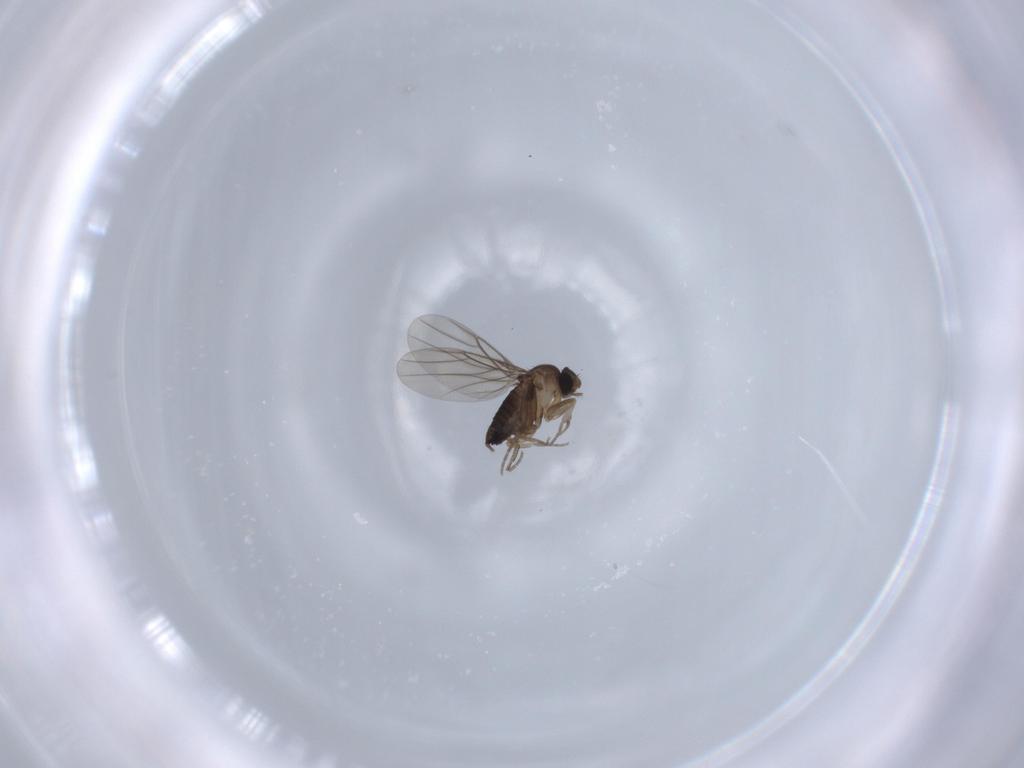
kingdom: Animalia
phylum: Arthropoda
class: Insecta
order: Diptera
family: Phoridae
